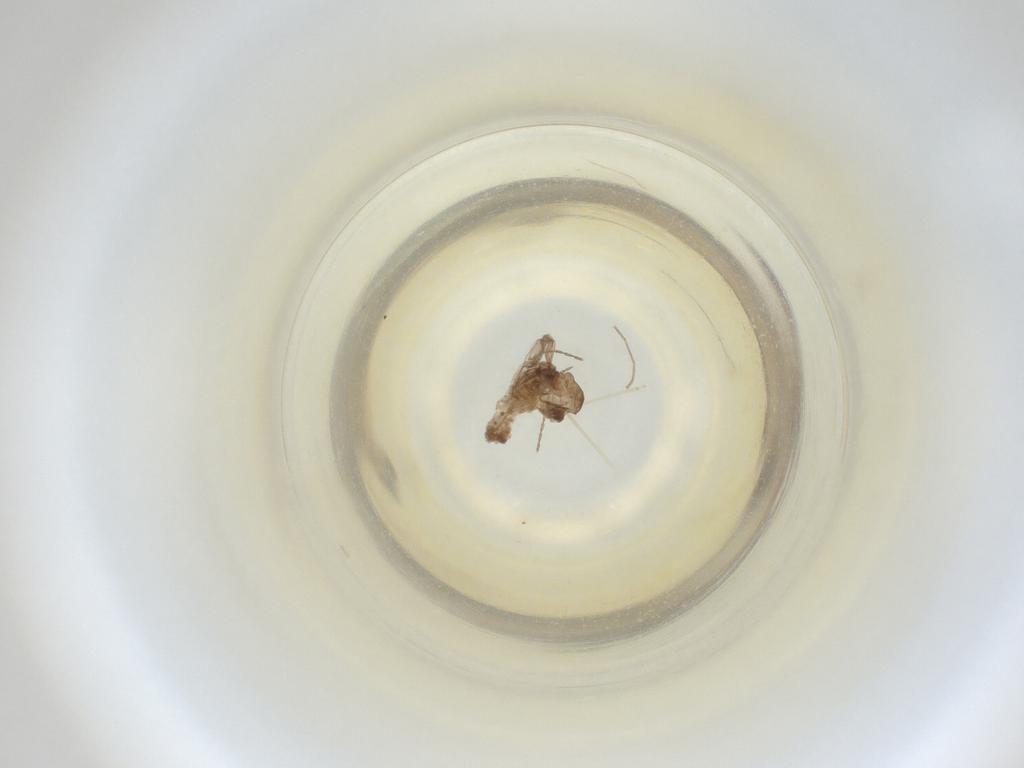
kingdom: Animalia
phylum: Arthropoda
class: Insecta
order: Diptera
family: Cecidomyiidae
